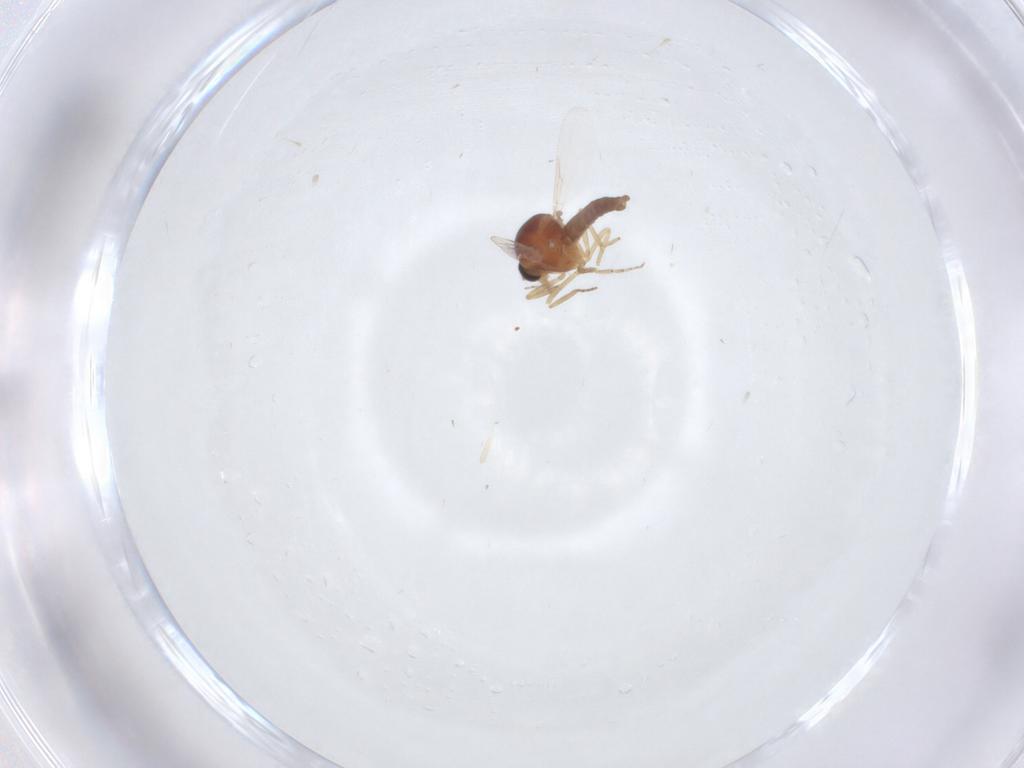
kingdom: Animalia
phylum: Arthropoda
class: Insecta
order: Diptera
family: Ceratopogonidae
